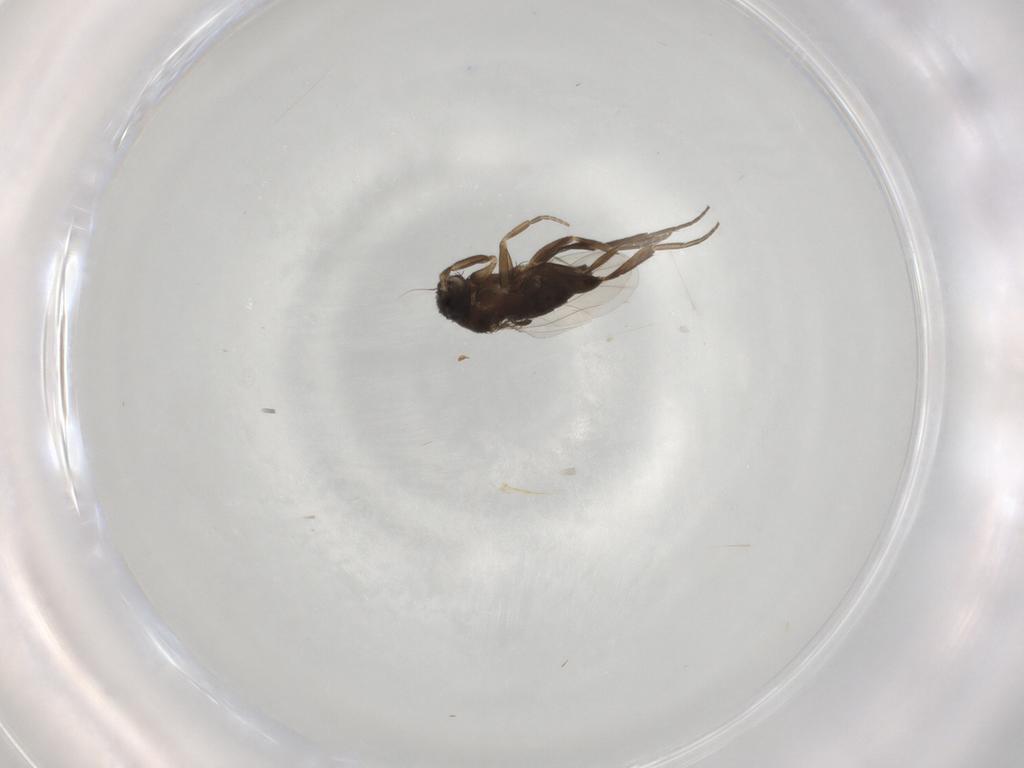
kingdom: Animalia
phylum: Arthropoda
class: Insecta
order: Diptera
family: Phoridae
